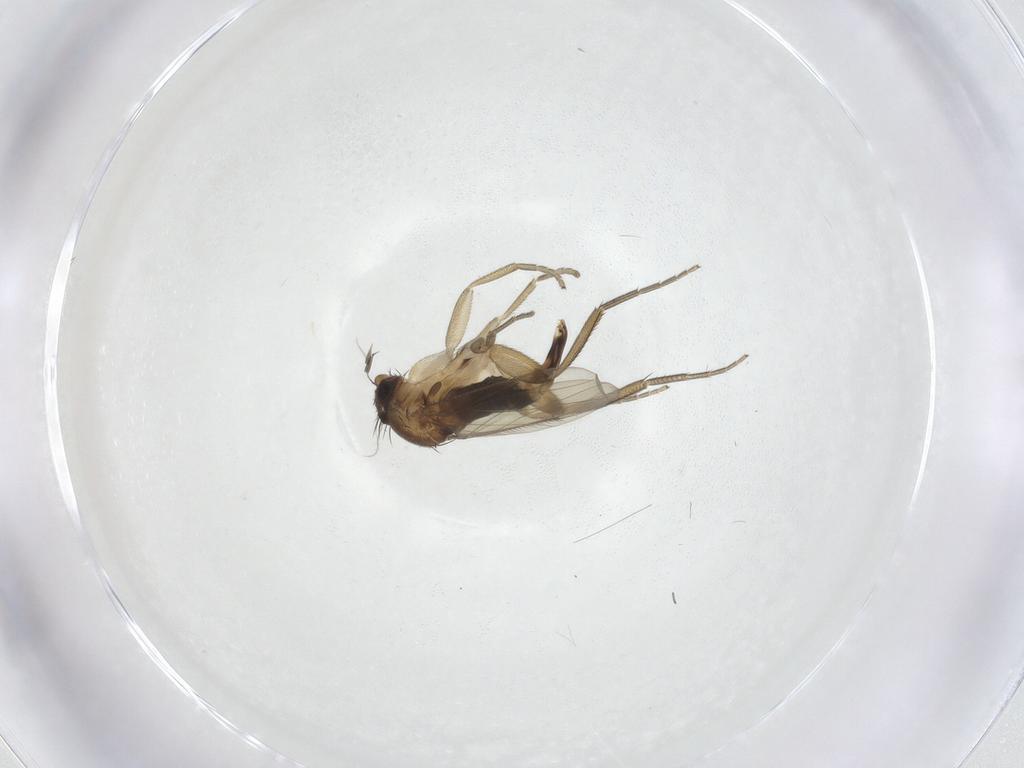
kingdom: Animalia
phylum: Arthropoda
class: Insecta
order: Diptera
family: Phoridae
